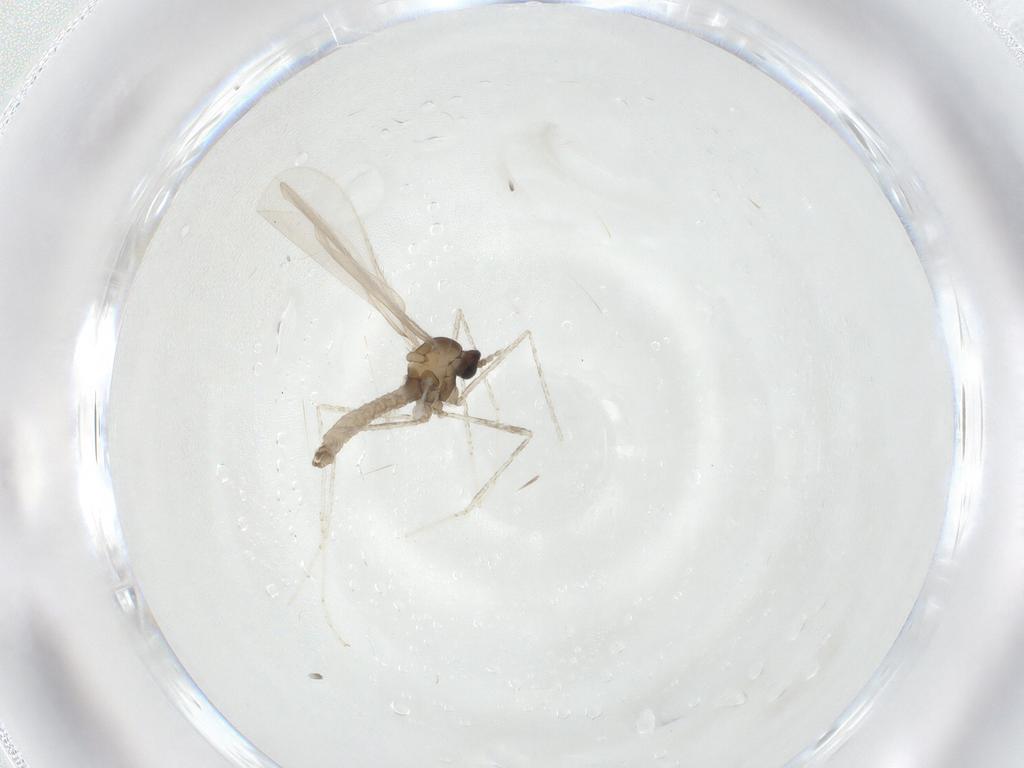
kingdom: Animalia
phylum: Arthropoda
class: Insecta
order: Diptera
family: Cecidomyiidae
